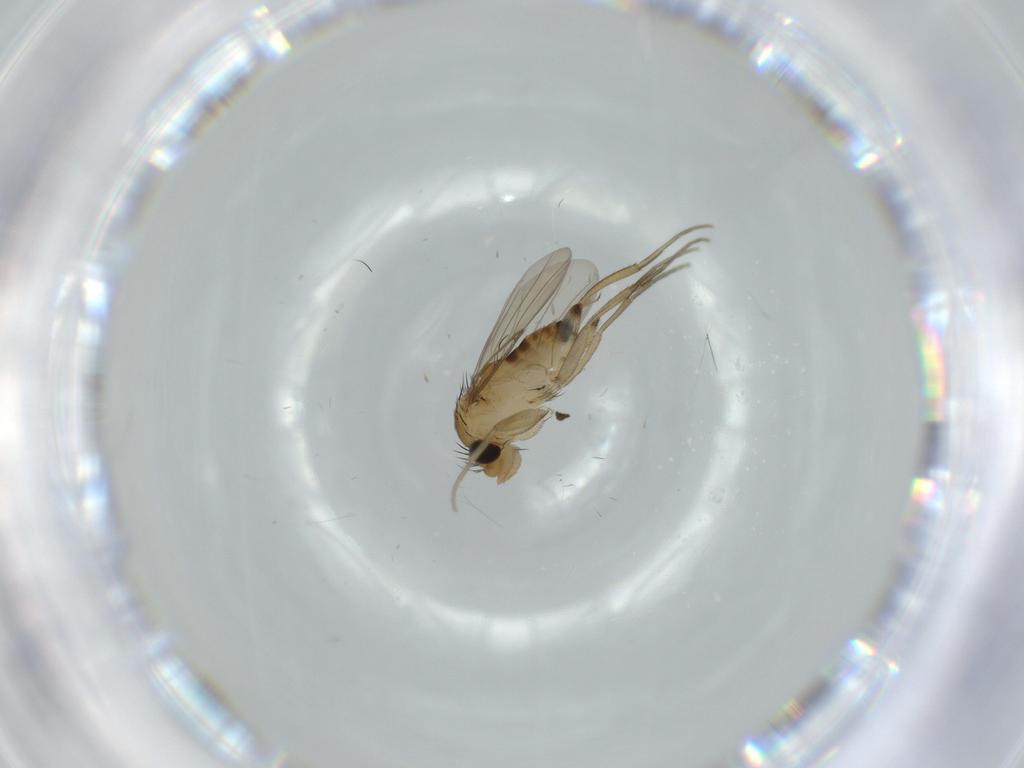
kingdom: Animalia
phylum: Arthropoda
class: Insecta
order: Diptera
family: Phoridae
